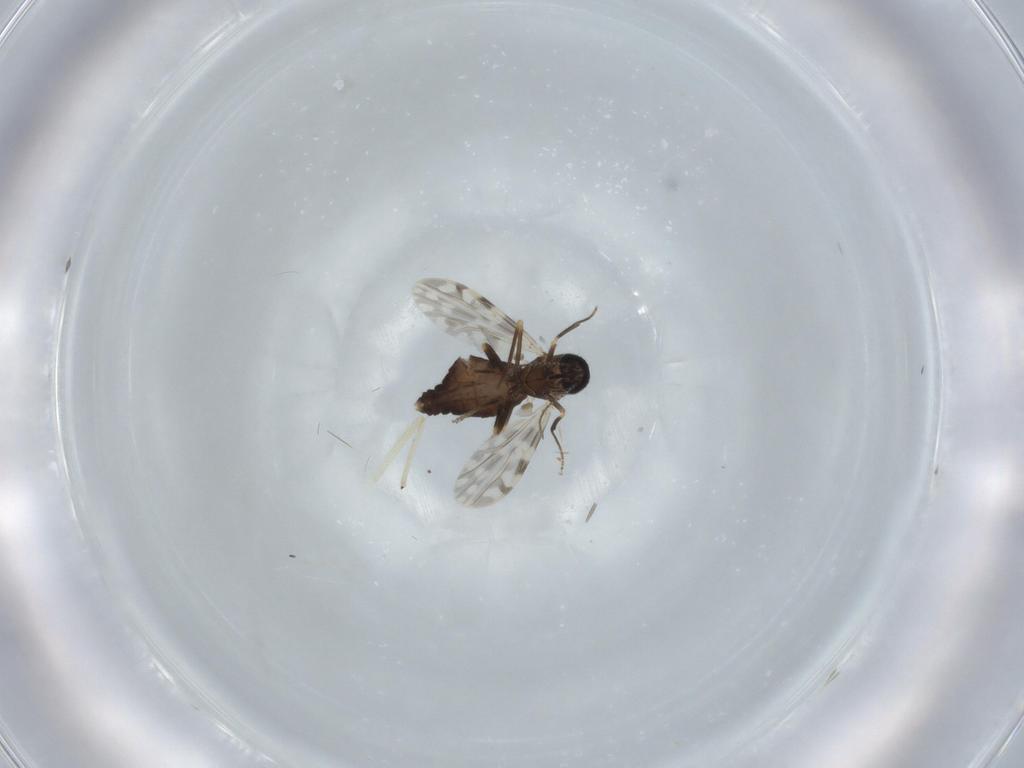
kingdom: Animalia
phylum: Arthropoda
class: Insecta
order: Diptera
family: Ceratopogonidae
